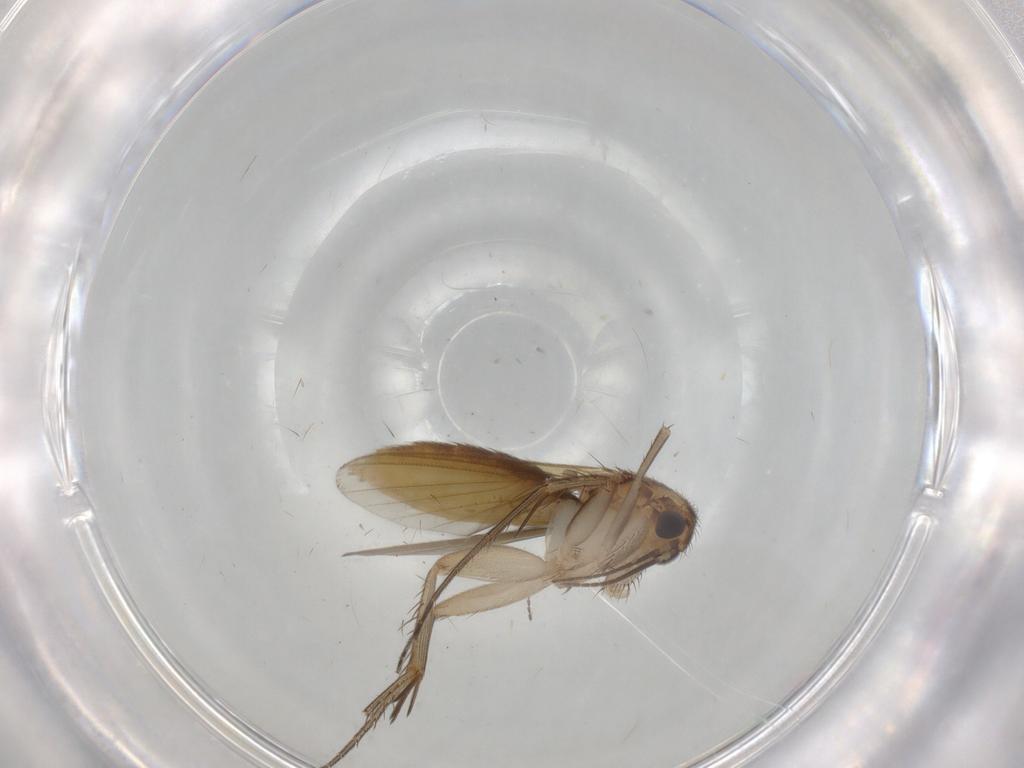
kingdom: Animalia
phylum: Arthropoda
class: Insecta
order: Diptera
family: Mycetophilidae
